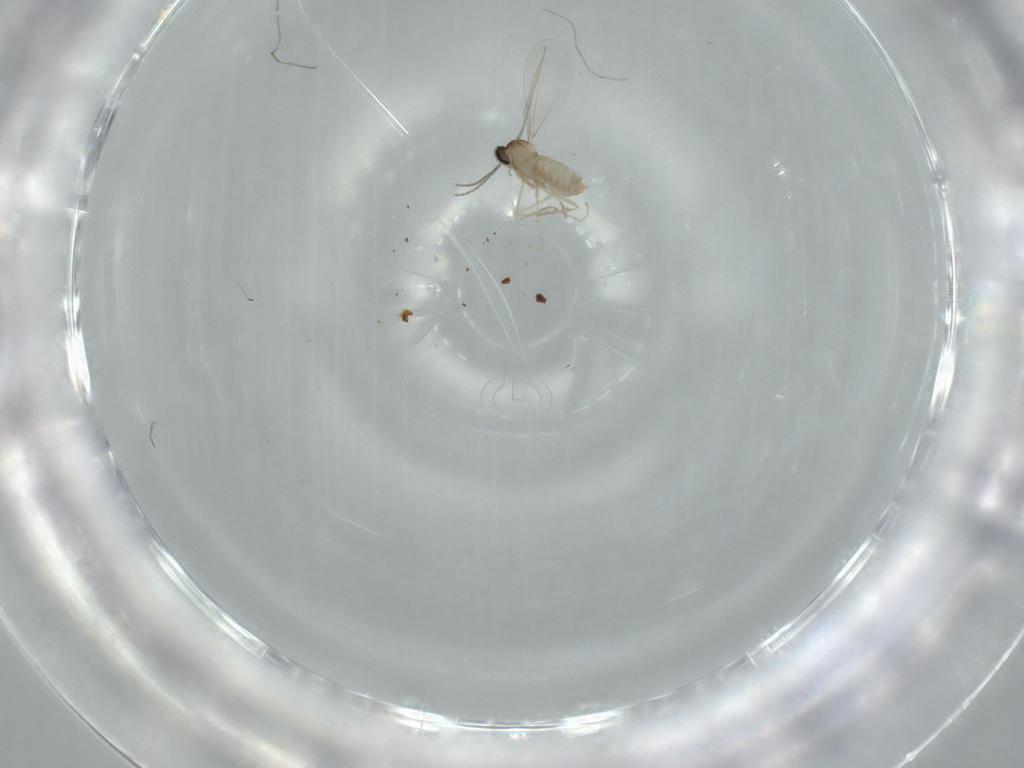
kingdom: Animalia
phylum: Arthropoda
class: Insecta
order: Diptera
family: Cecidomyiidae
